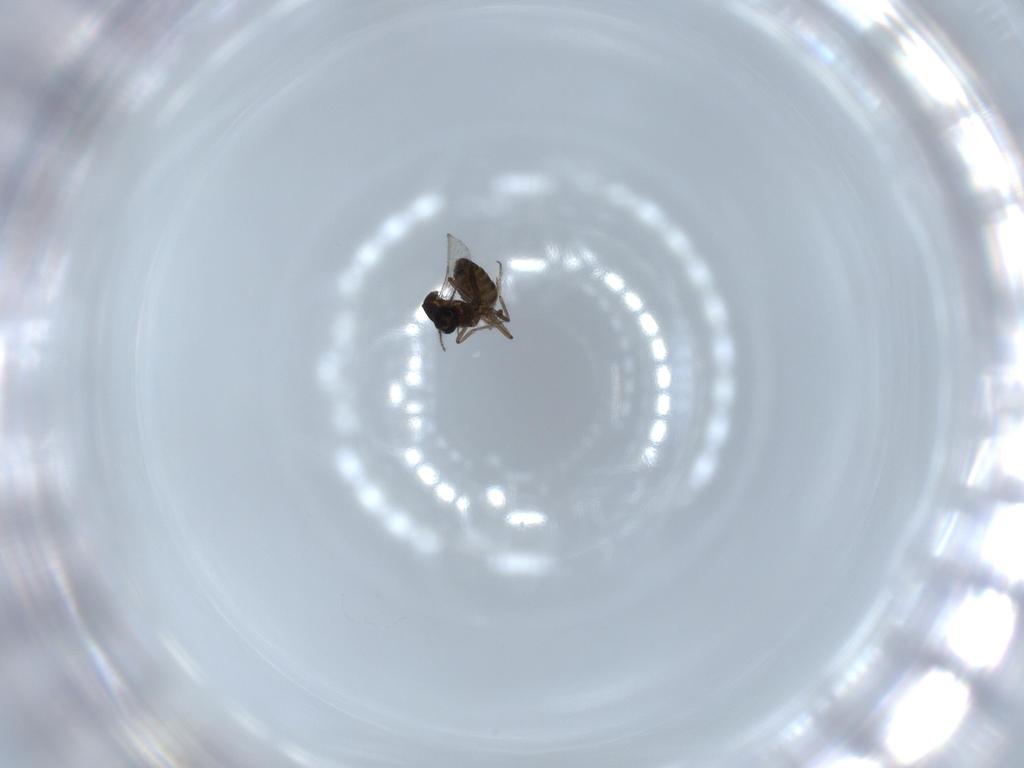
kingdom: Animalia
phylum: Arthropoda
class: Insecta
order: Diptera
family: Ceratopogonidae
